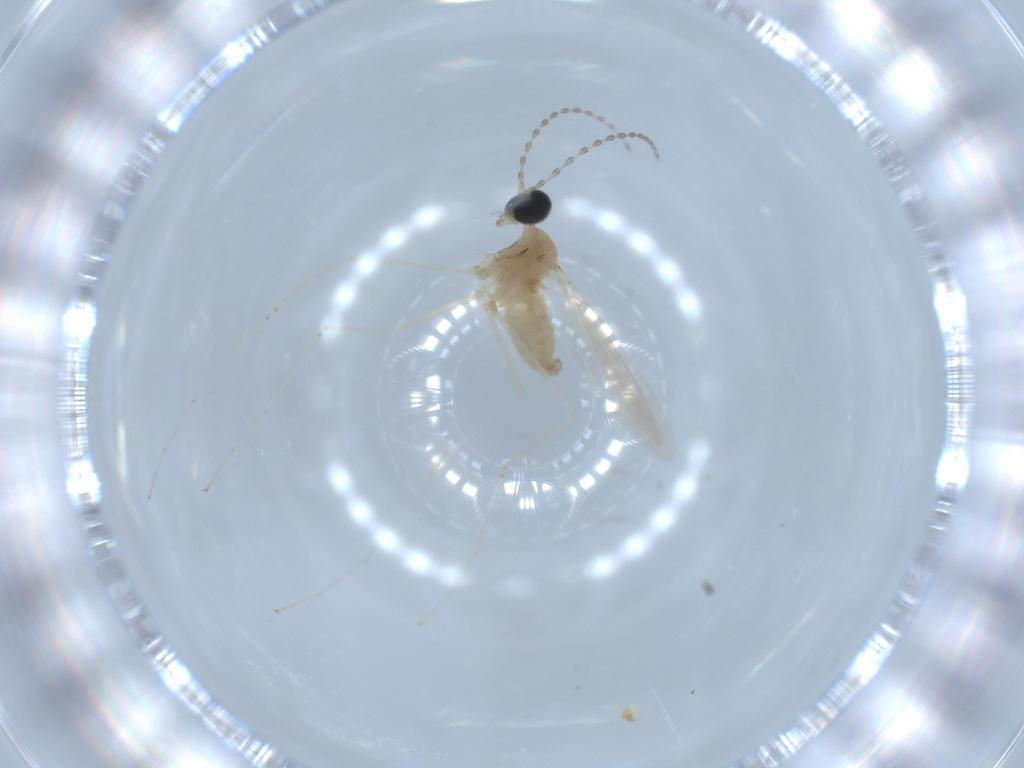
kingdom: Animalia
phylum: Arthropoda
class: Insecta
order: Diptera
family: Cecidomyiidae
